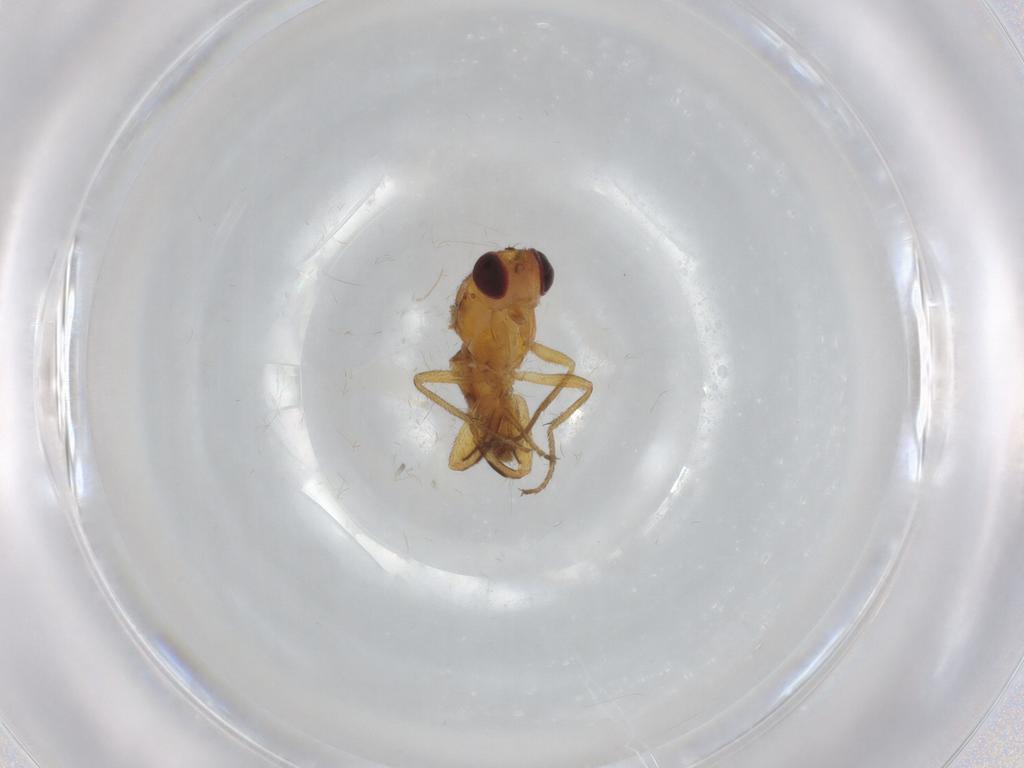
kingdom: Animalia
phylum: Arthropoda
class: Insecta
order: Diptera
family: Chloropidae
